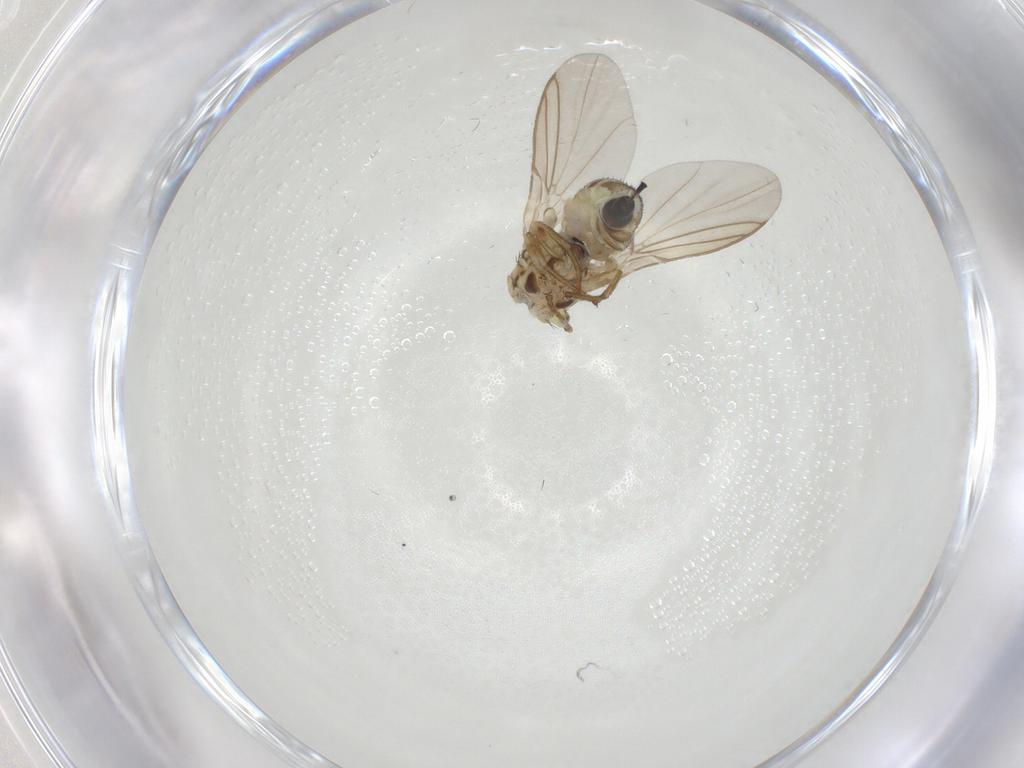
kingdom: Animalia
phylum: Arthropoda
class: Insecta
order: Diptera
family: Agromyzidae
